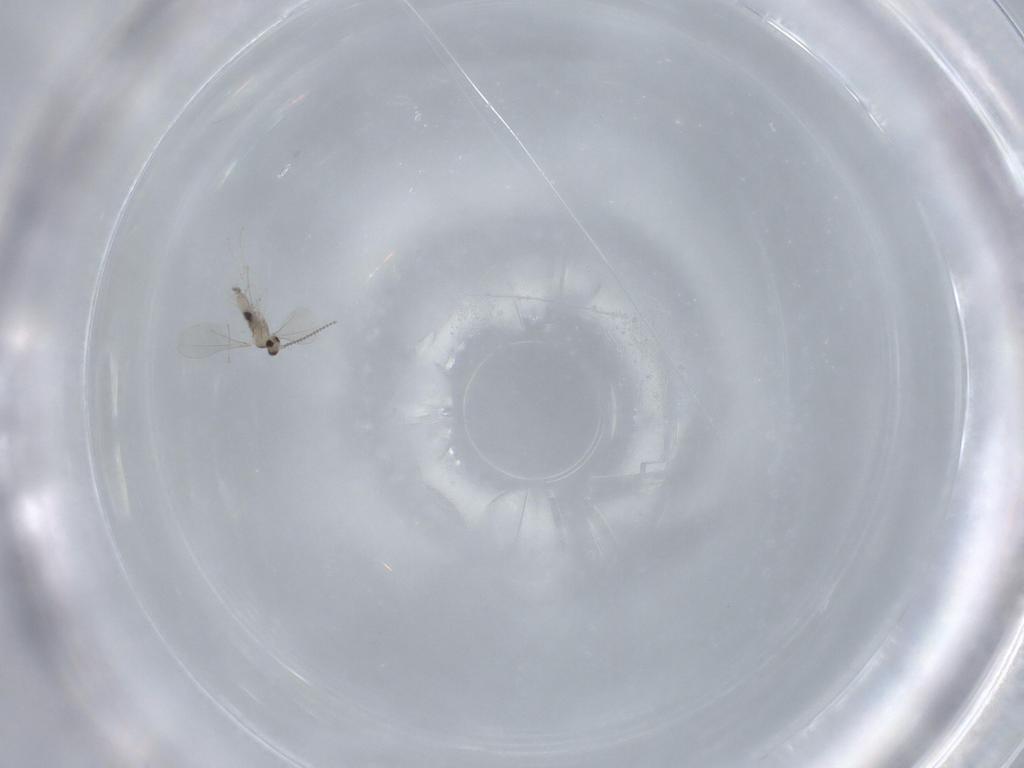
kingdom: Animalia
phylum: Arthropoda
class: Insecta
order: Diptera
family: Cecidomyiidae
